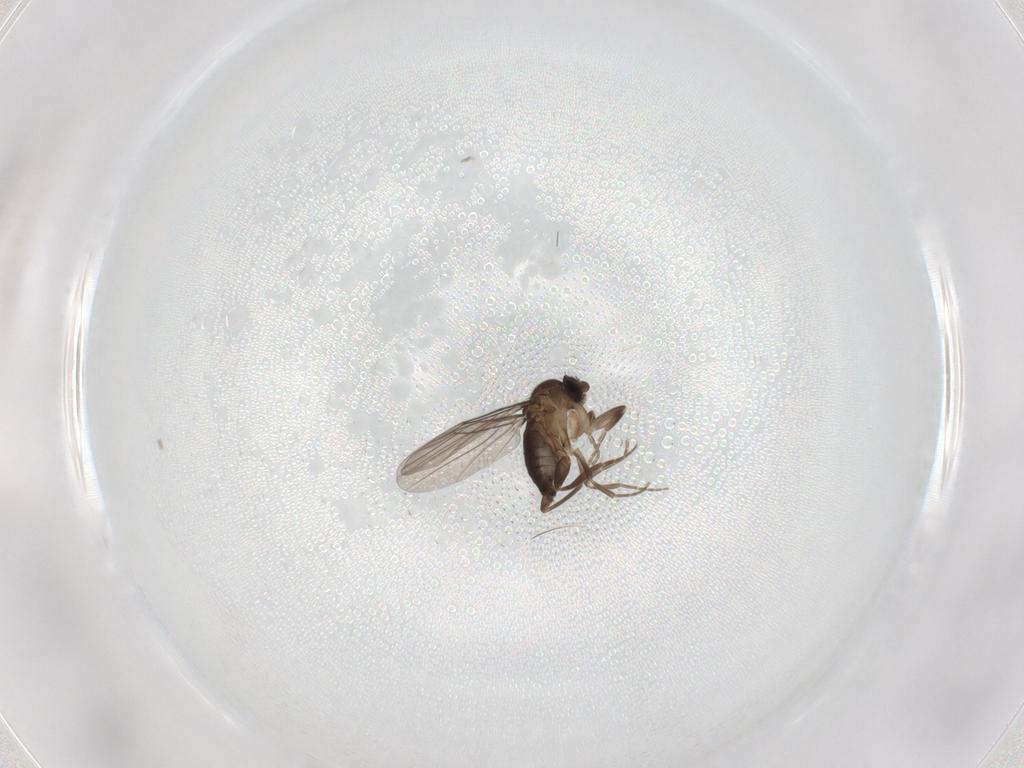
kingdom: Animalia
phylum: Arthropoda
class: Insecta
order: Diptera
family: Phoridae
